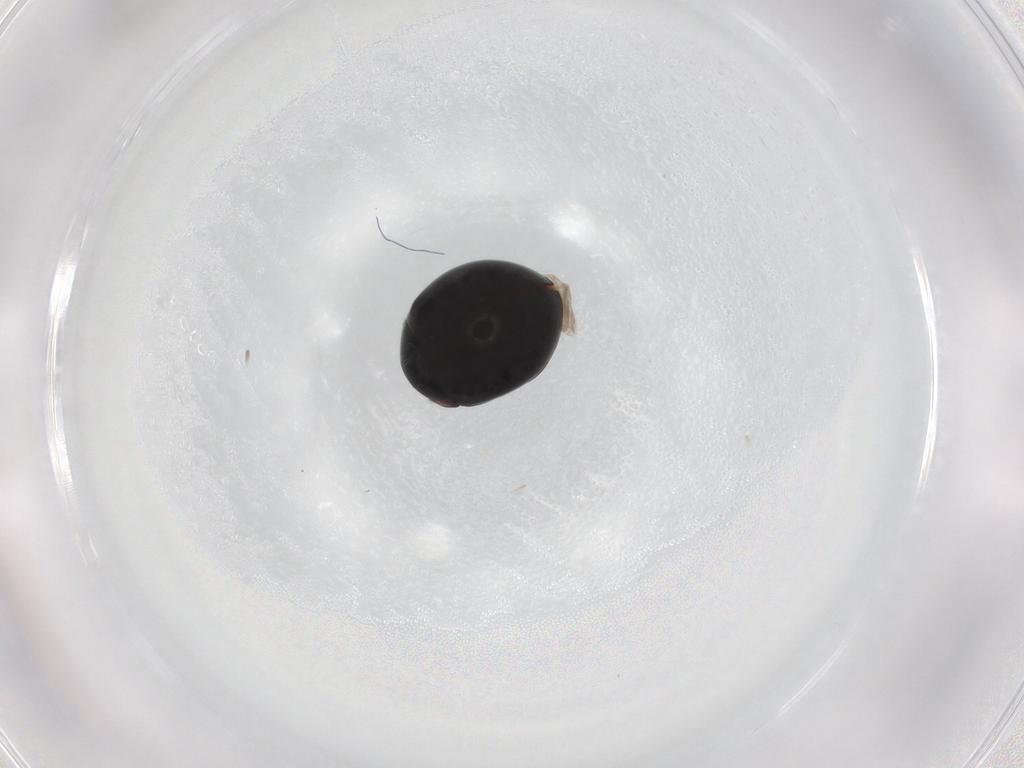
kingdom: Animalia
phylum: Arthropoda
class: Insecta
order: Coleoptera
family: Coccinellidae
